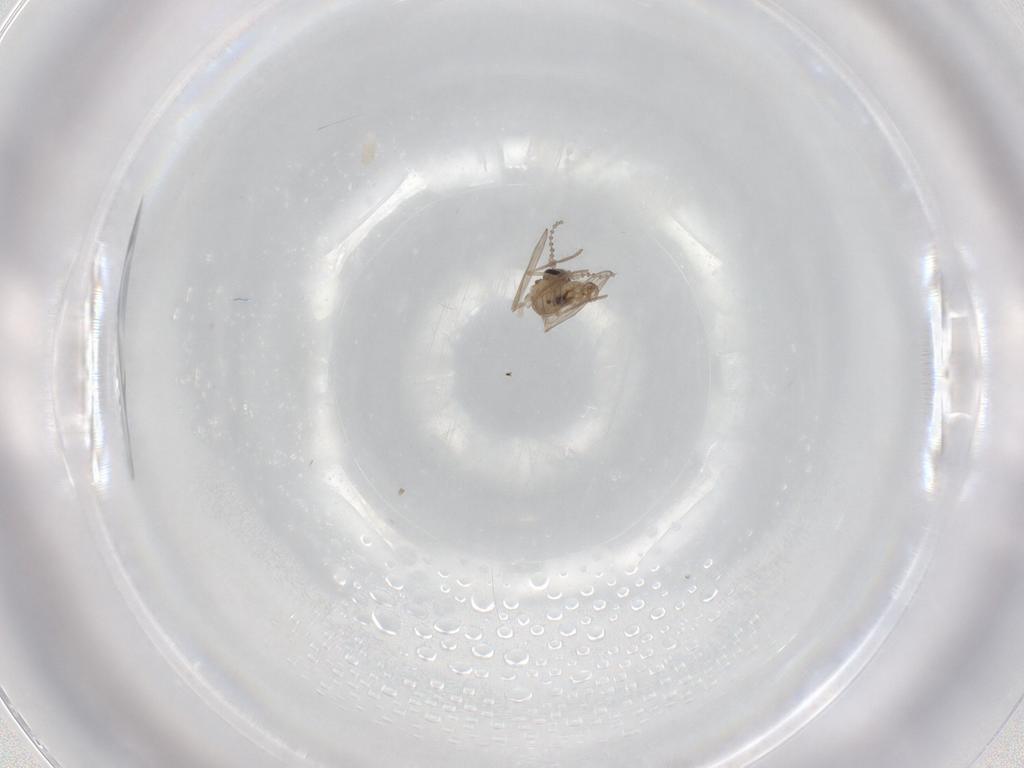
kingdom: Animalia
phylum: Arthropoda
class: Insecta
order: Diptera
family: Psychodidae
